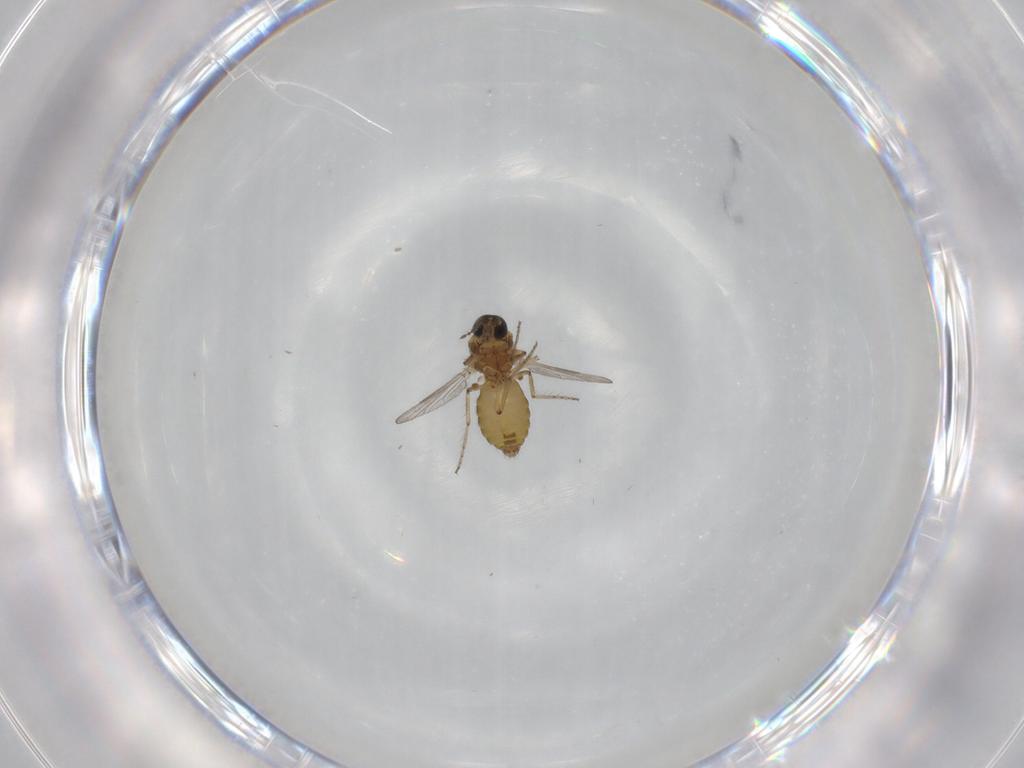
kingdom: Animalia
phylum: Arthropoda
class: Insecta
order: Diptera
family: Ceratopogonidae
